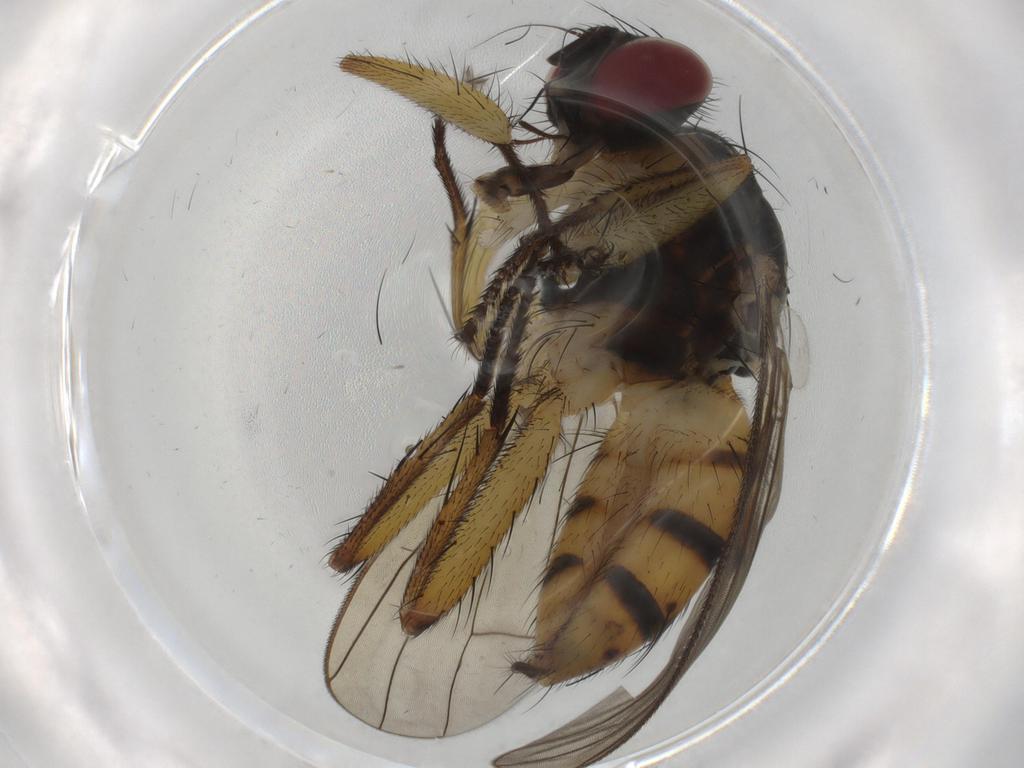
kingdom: Animalia
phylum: Arthropoda
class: Insecta
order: Diptera
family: Muscidae
